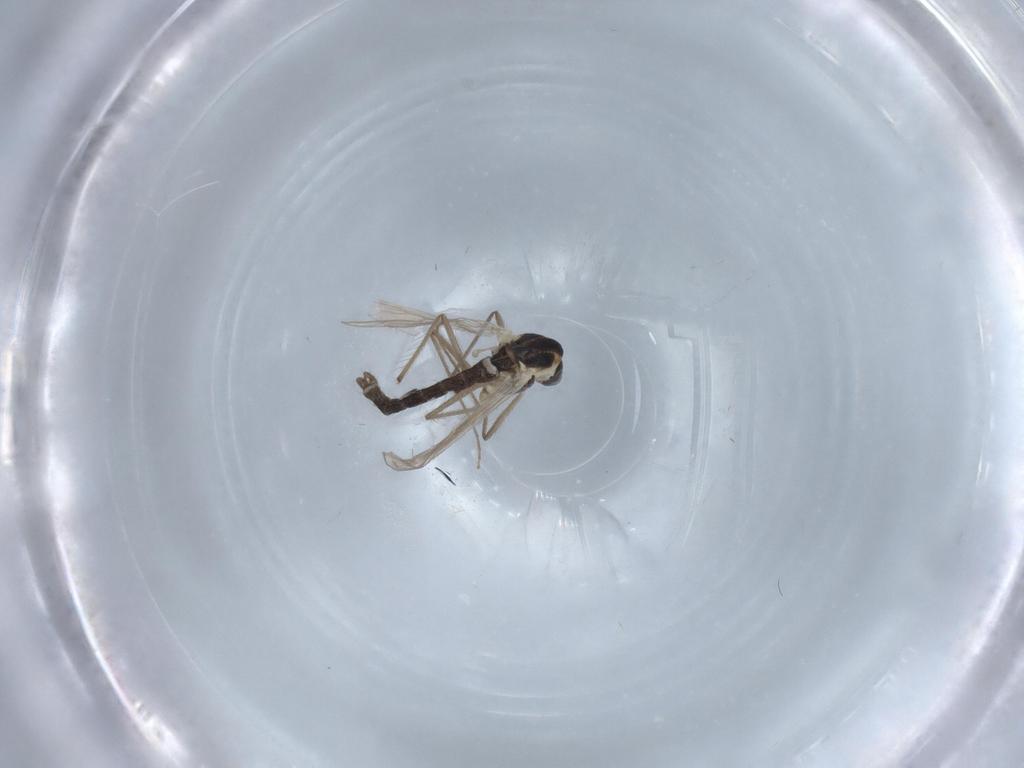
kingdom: Animalia
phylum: Arthropoda
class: Insecta
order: Diptera
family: Chironomidae
